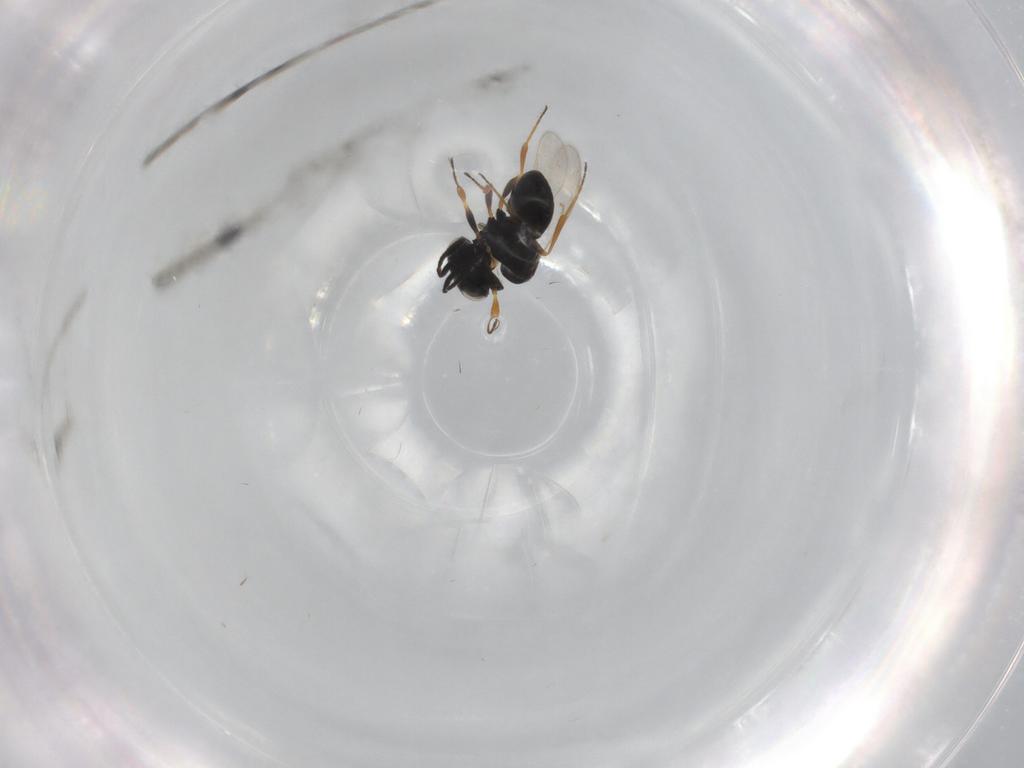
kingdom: Animalia
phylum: Arthropoda
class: Insecta
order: Hymenoptera
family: Scelionidae
